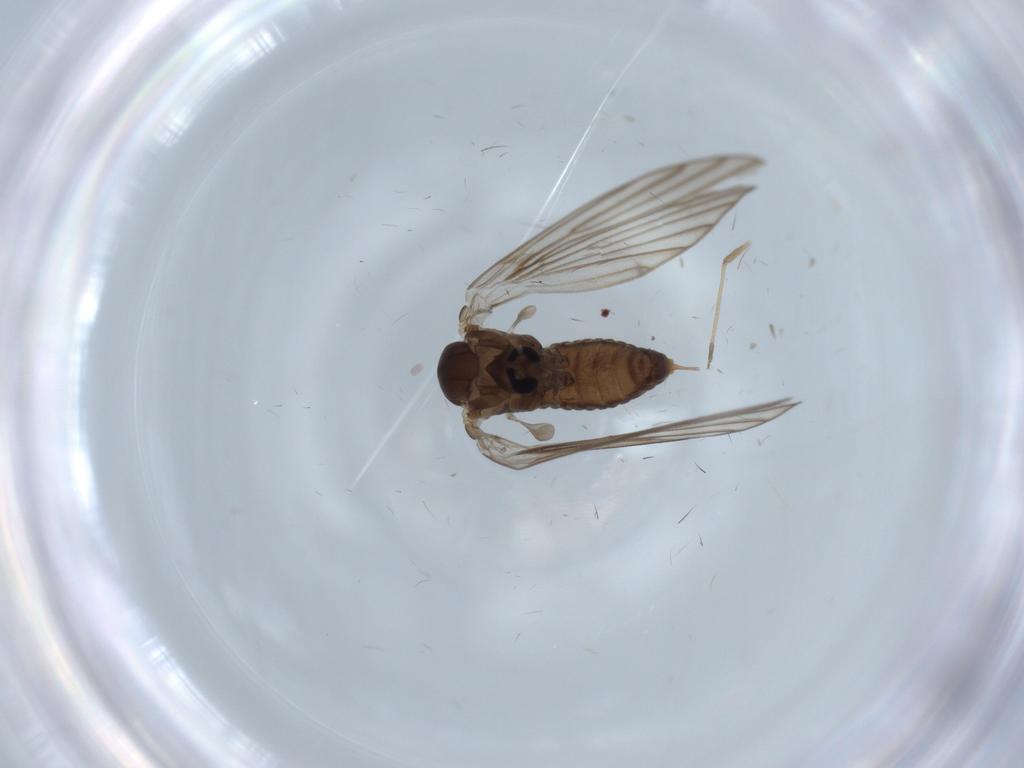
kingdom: Animalia
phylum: Arthropoda
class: Insecta
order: Diptera
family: Psychodidae
